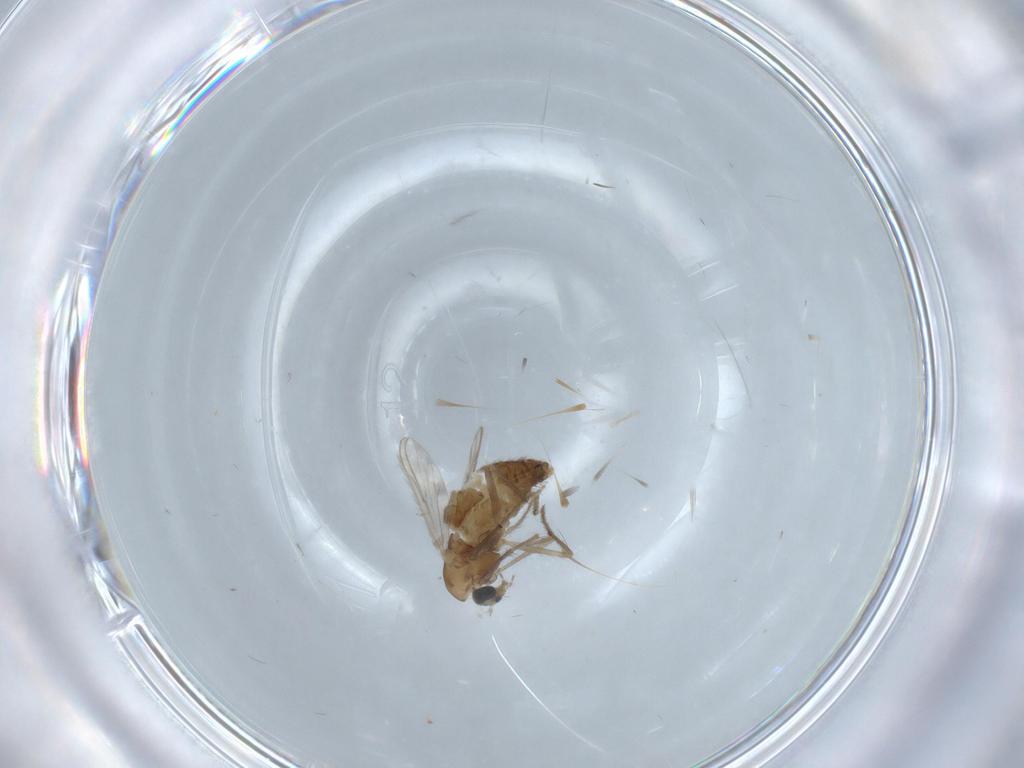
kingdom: Animalia
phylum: Arthropoda
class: Insecta
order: Diptera
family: Chironomidae
